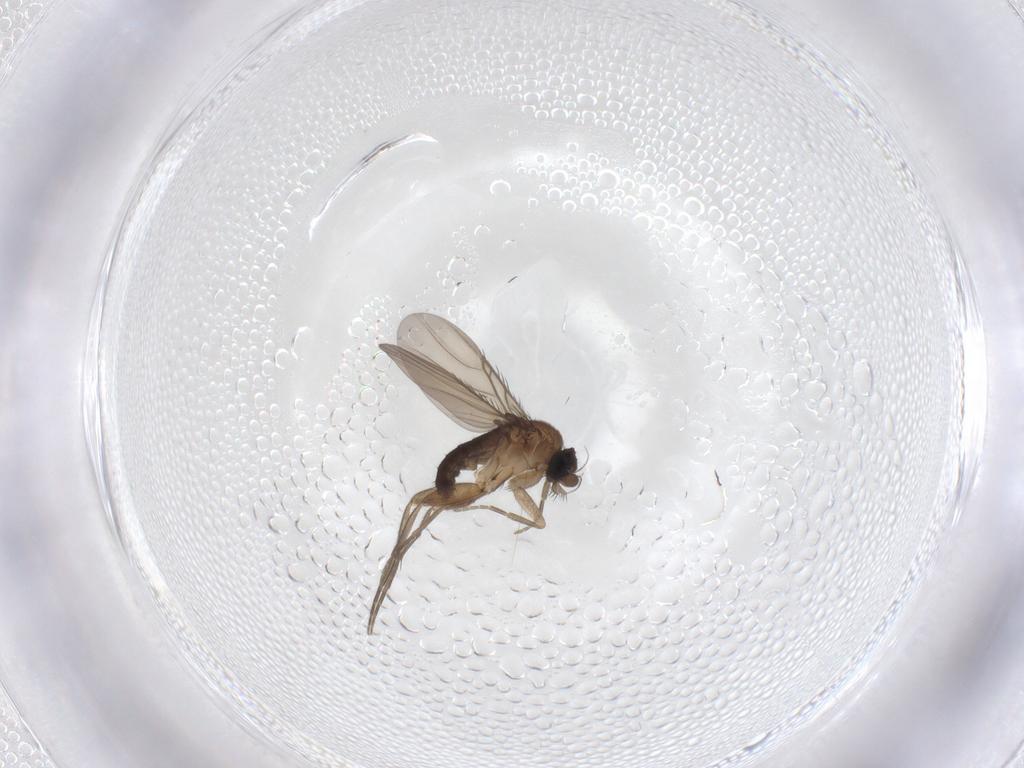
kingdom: Animalia
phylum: Arthropoda
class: Insecta
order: Diptera
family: Phoridae
